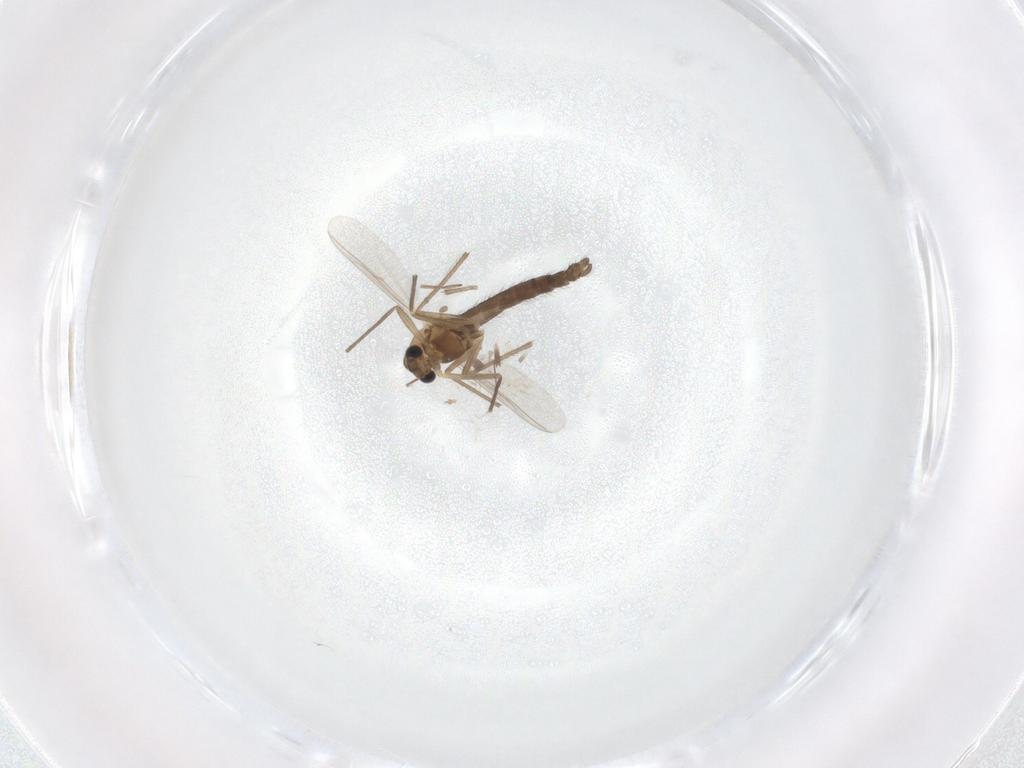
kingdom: Animalia
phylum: Arthropoda
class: Insecta
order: Diptera
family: Chironomidae
